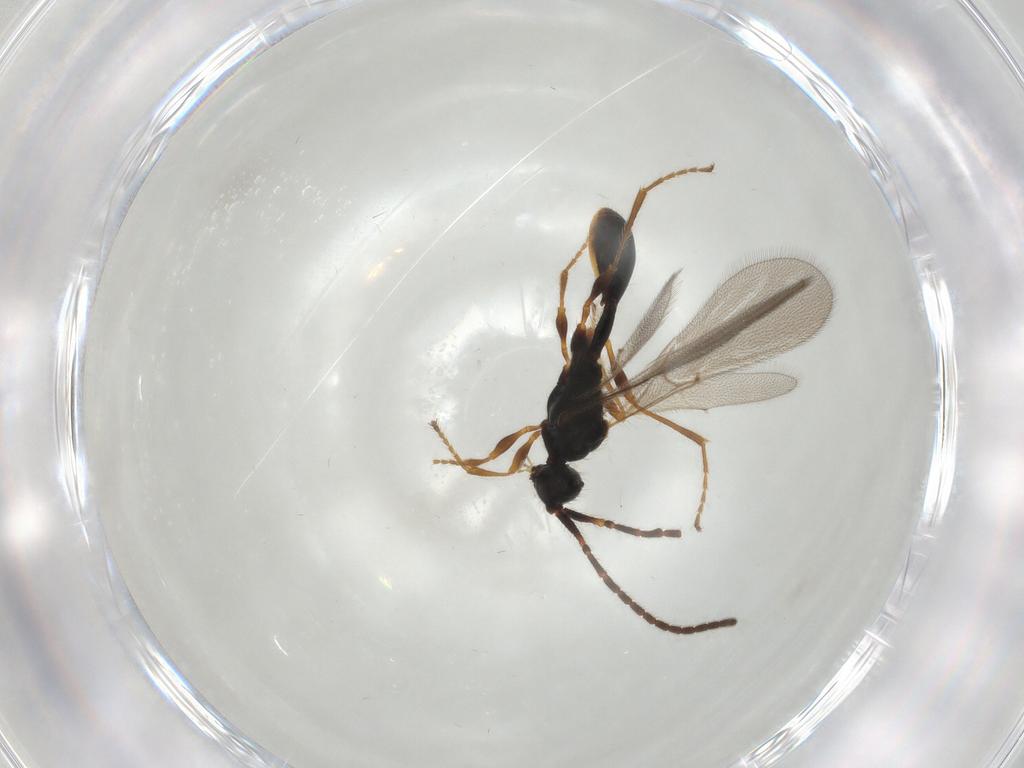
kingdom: Animalia
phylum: Arthropoda
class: Insecta
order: Hymenoptera
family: Diapriidae
